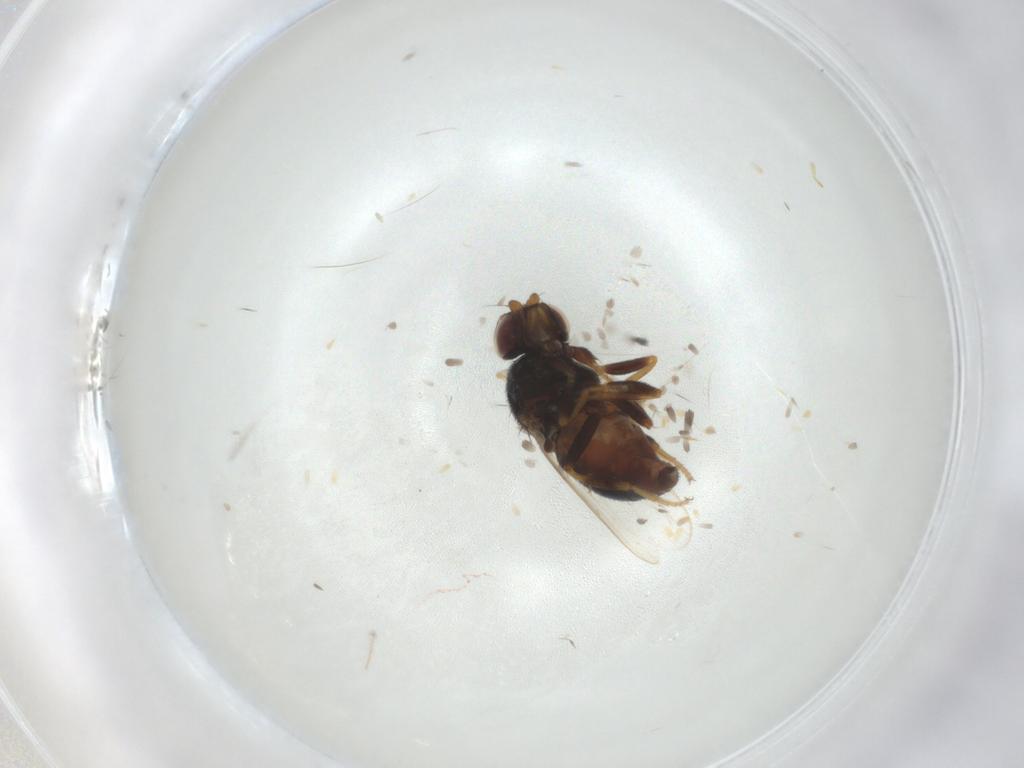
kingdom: Animalia
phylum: Arthropoda
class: Insecta
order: Diptera
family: Chloropidae
